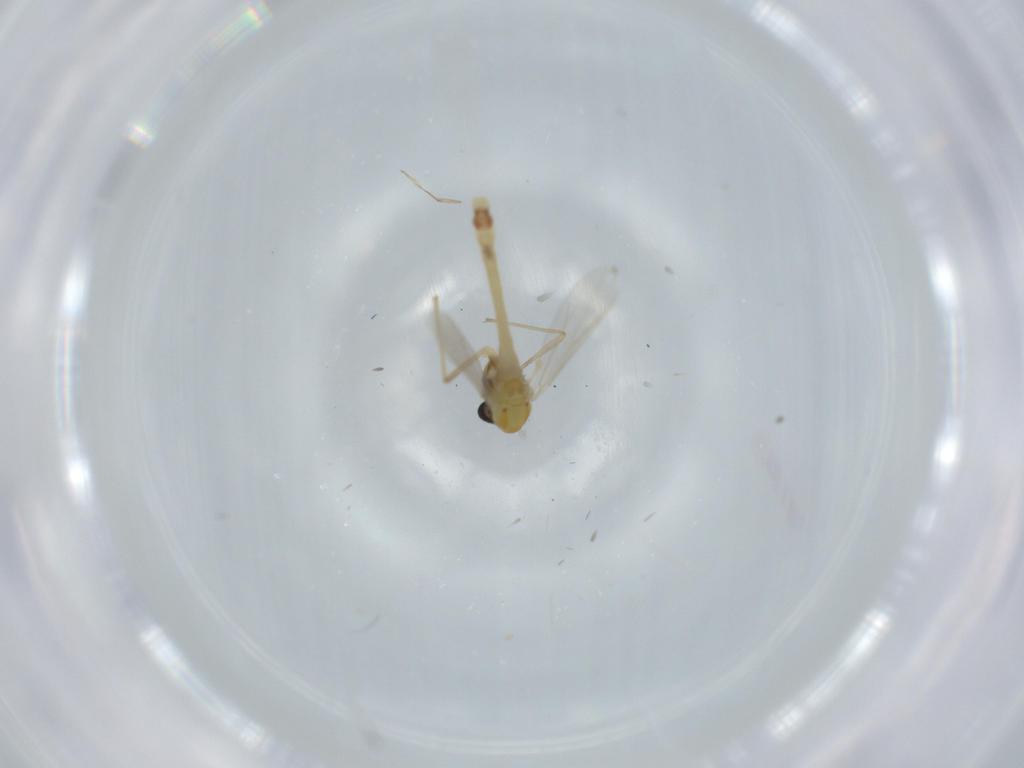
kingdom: Animalia
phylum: Arthropoda
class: Insecta
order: Diptera
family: Chironomidae
